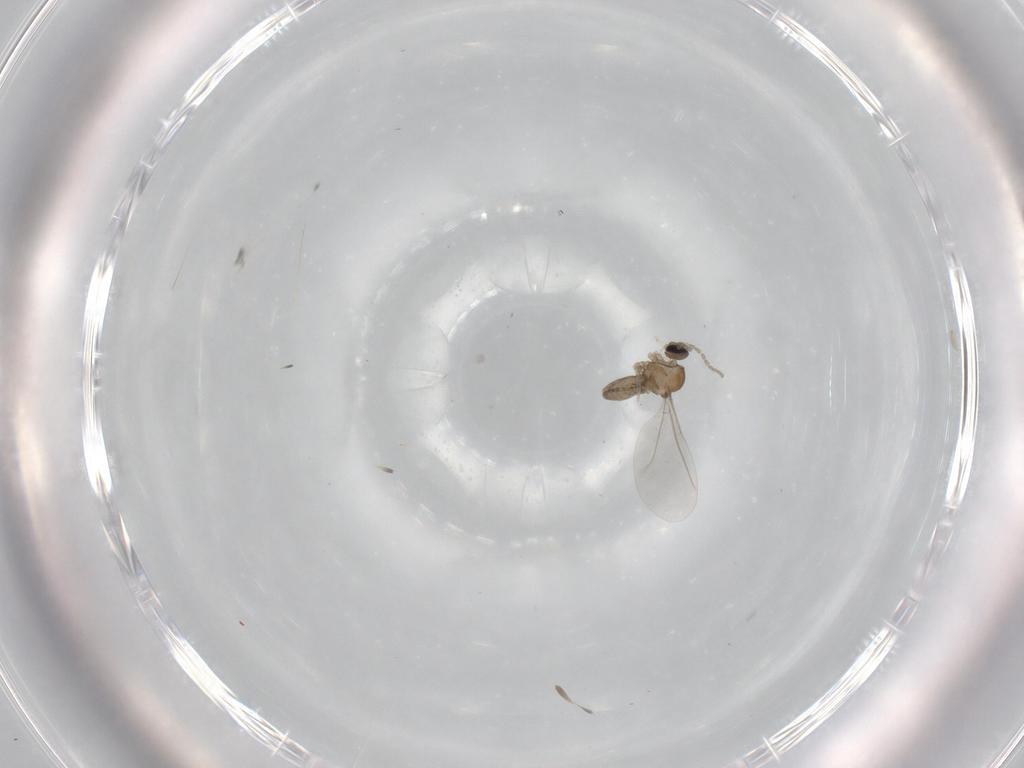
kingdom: Animalia
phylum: Arthropoda
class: Insecta
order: Diptera
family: Cecidomyiidae
